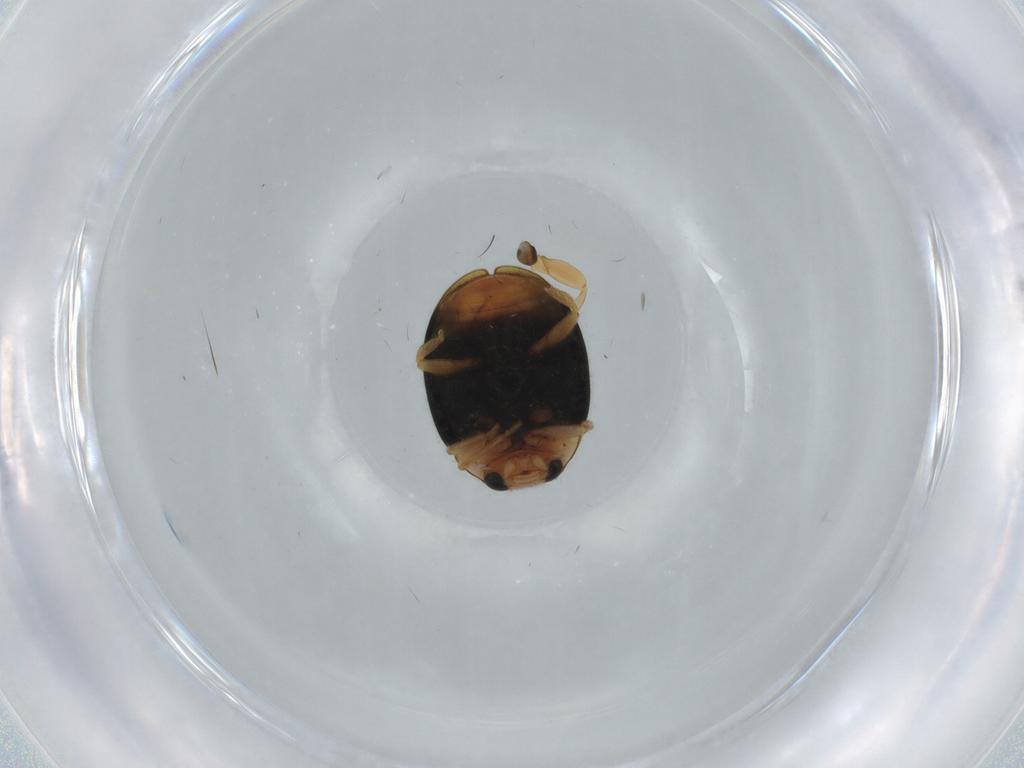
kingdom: Animalia
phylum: Arthropoda
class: Insecta
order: Coleoptera
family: Coccinellidae
